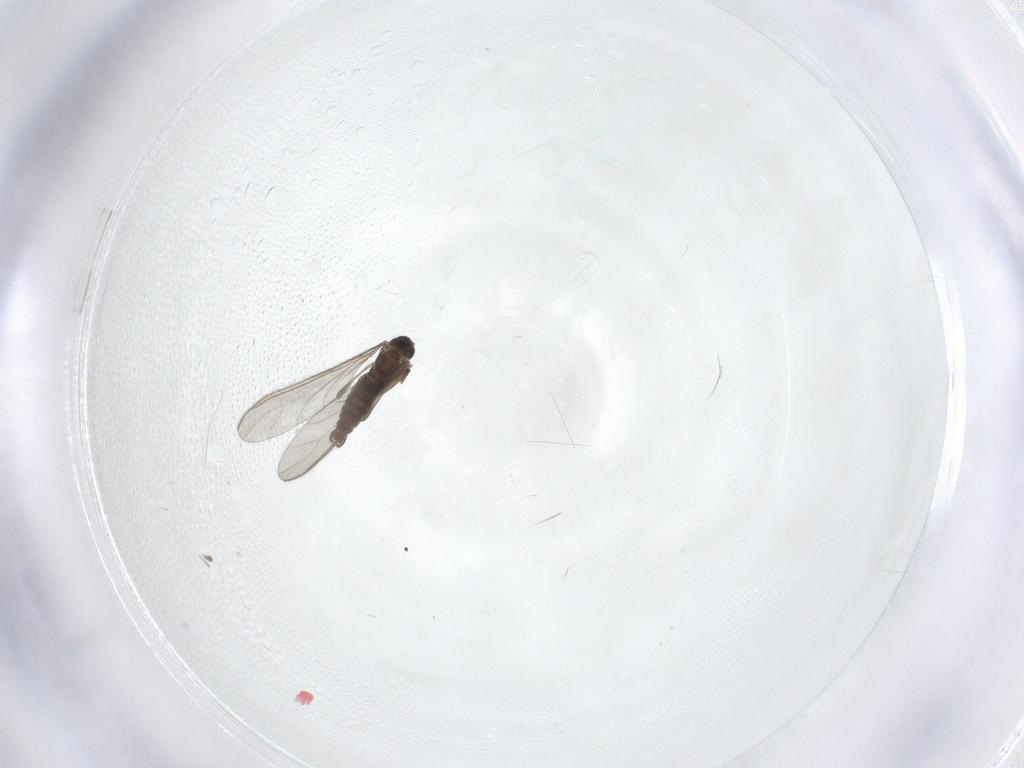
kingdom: Animalia
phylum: Arthropoda
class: Insecta
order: Diptera
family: Sciaridae
